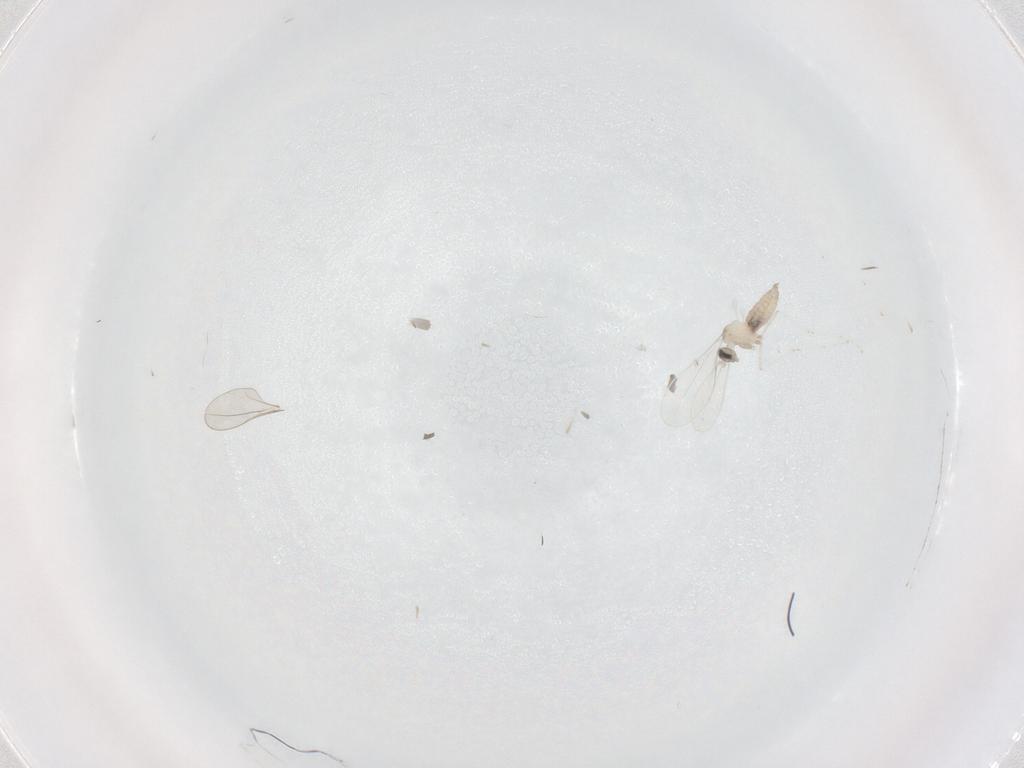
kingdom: Animalia
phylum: Arthropoda
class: Insecta
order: Diptera
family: Cecidomyiidae
